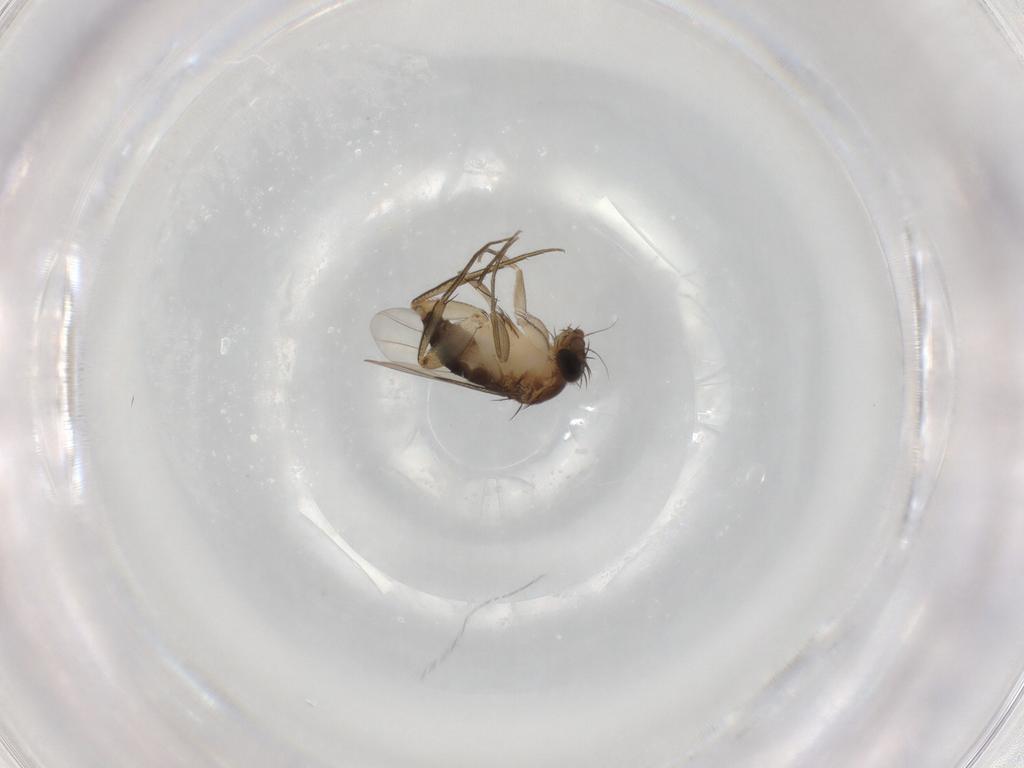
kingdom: Animalia
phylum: Arthropoda
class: Insecta
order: Diptera
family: Phoridae
